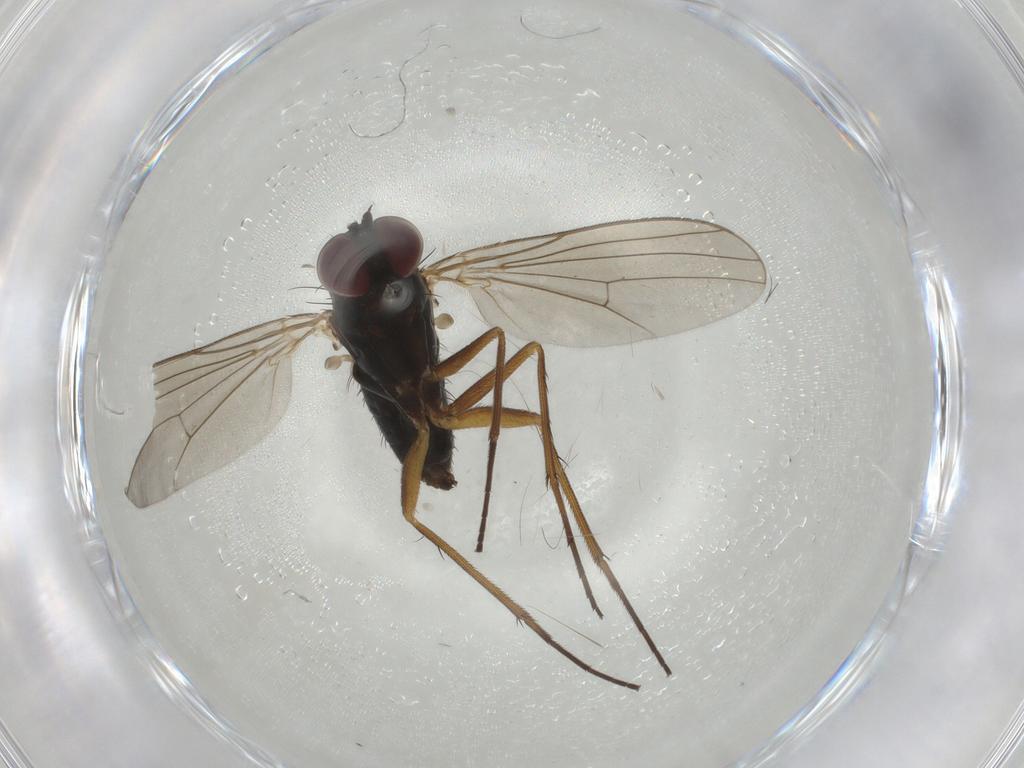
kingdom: Animalia
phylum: Arthropoda
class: Insecta
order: Diptera
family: Dolichopodidae
